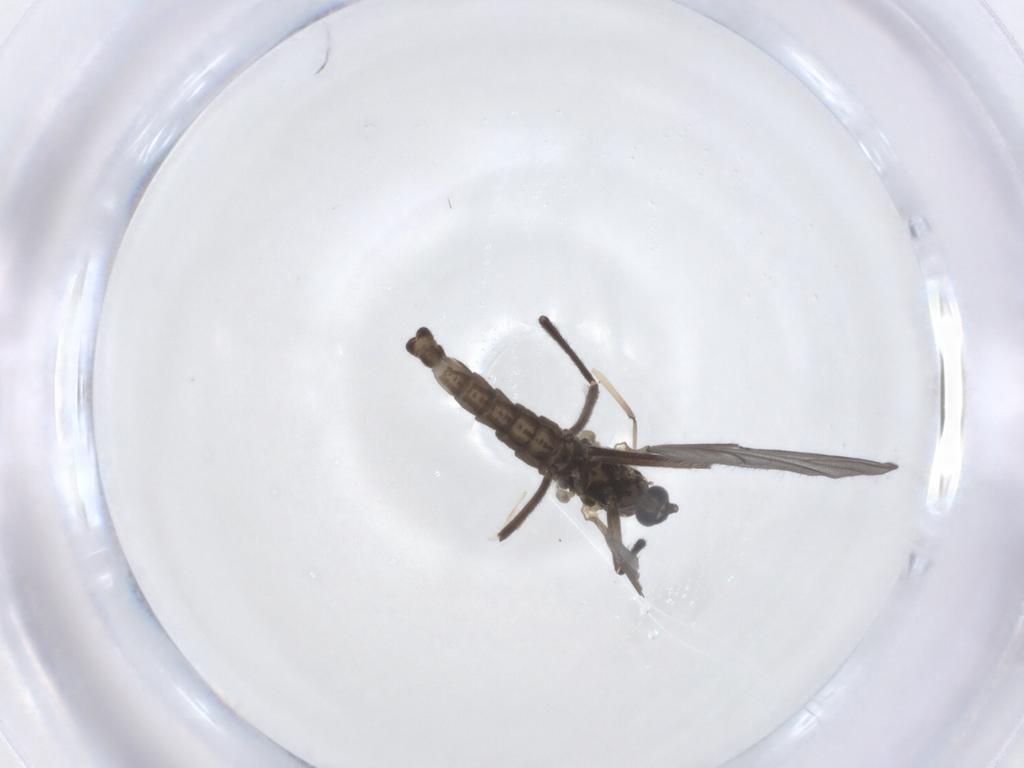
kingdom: Animalia
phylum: Arthropoda
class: Insecta
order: Diptera
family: Cecidomyiidae
